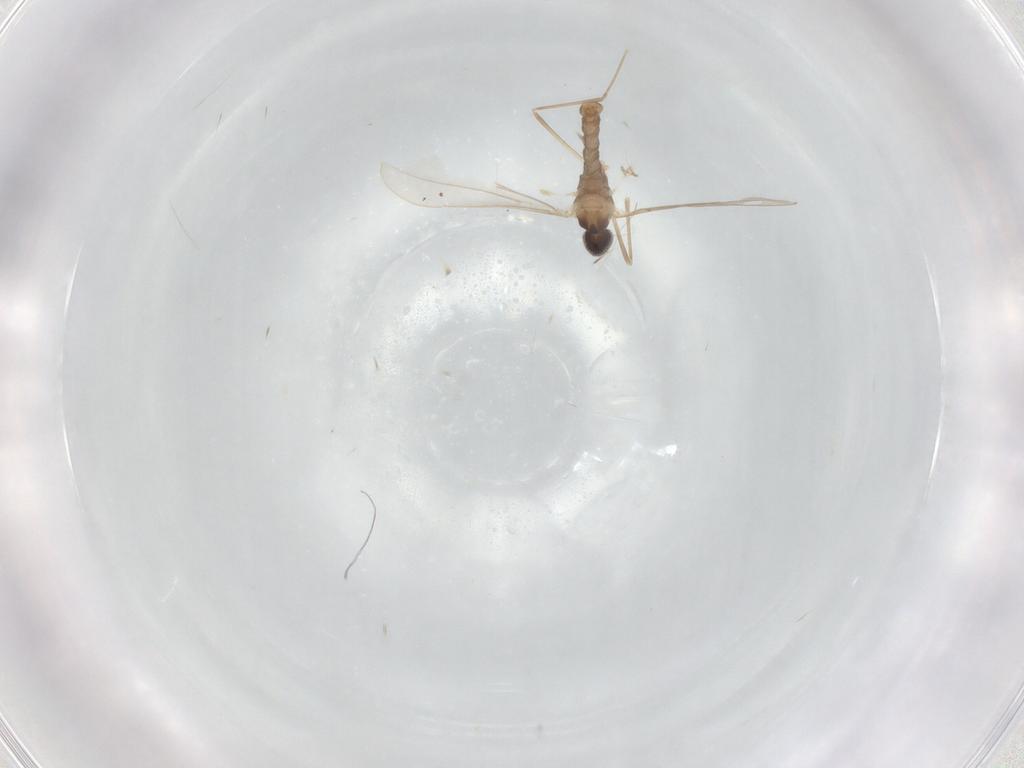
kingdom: Animalia
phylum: Arthropoda
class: Insecta
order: Diptera
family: Cecidomyiidae
